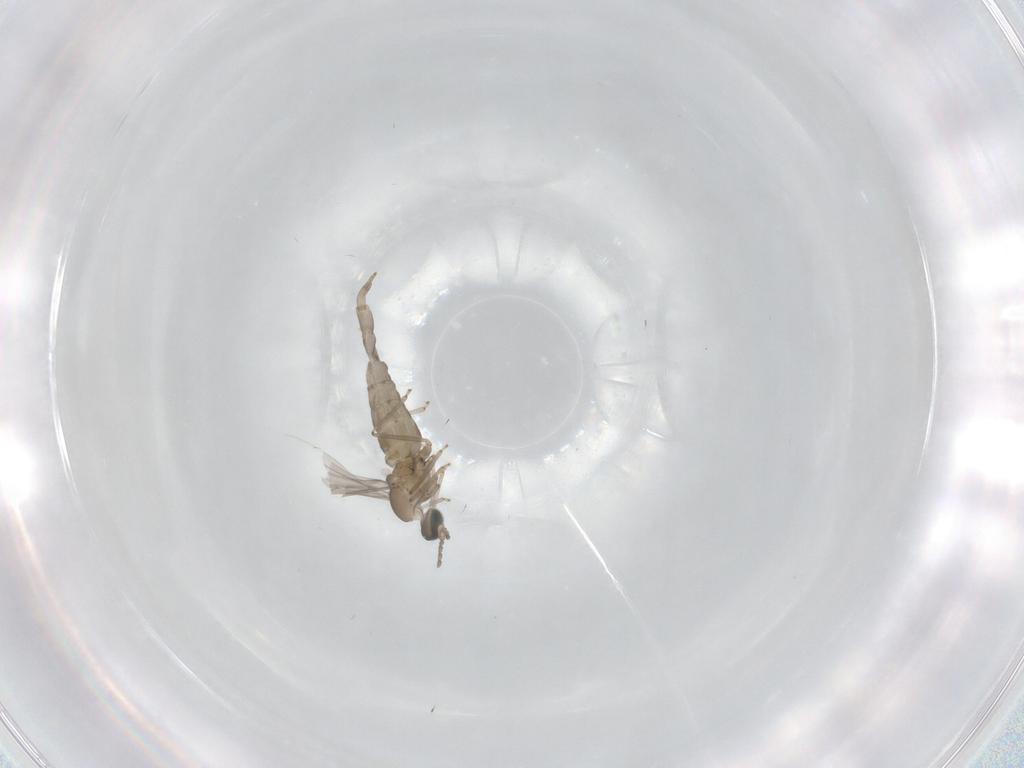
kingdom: Animalia
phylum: Arthropoda
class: Insecta
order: Diptera
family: Cecidomyiidae
